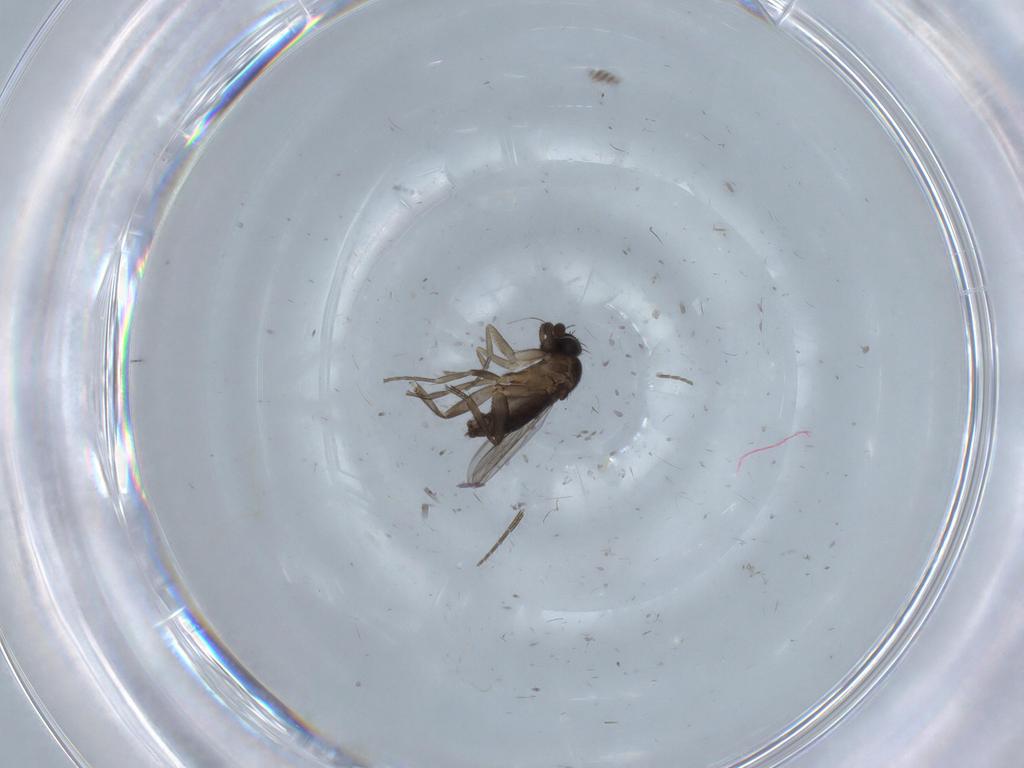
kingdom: Animalia
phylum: Arthropoda
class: Insecta
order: Diptera
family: Phoridae
